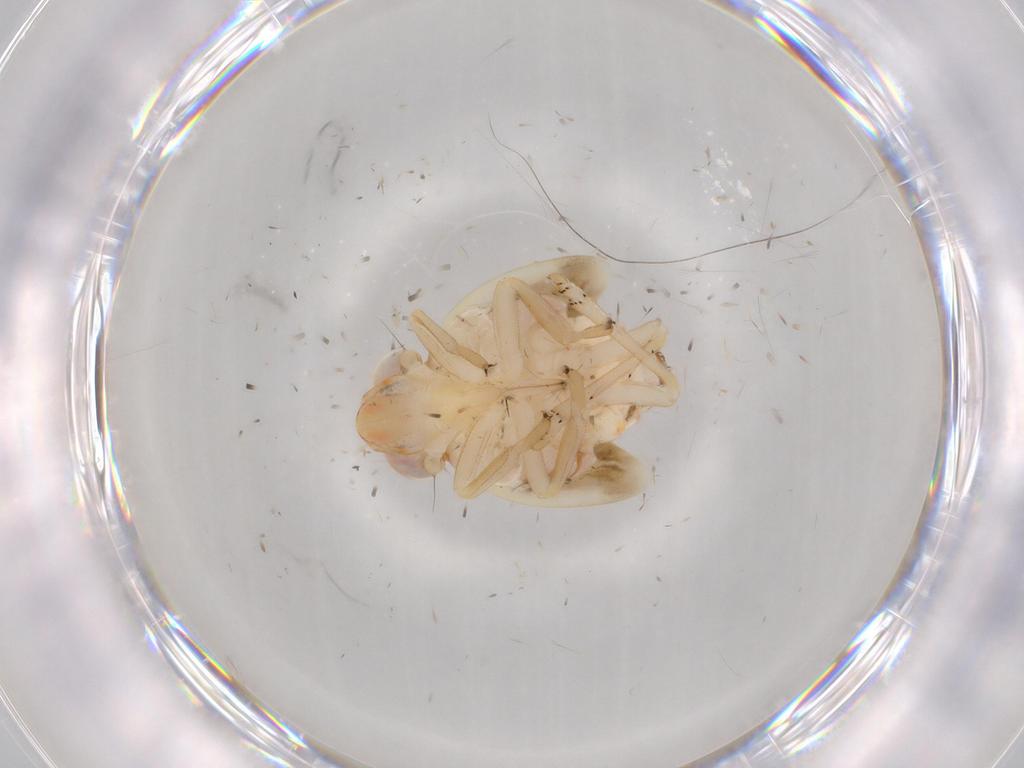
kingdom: Animalia
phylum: Arthropoda
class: Insecta
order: Hemiptera
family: Nogodinidae
